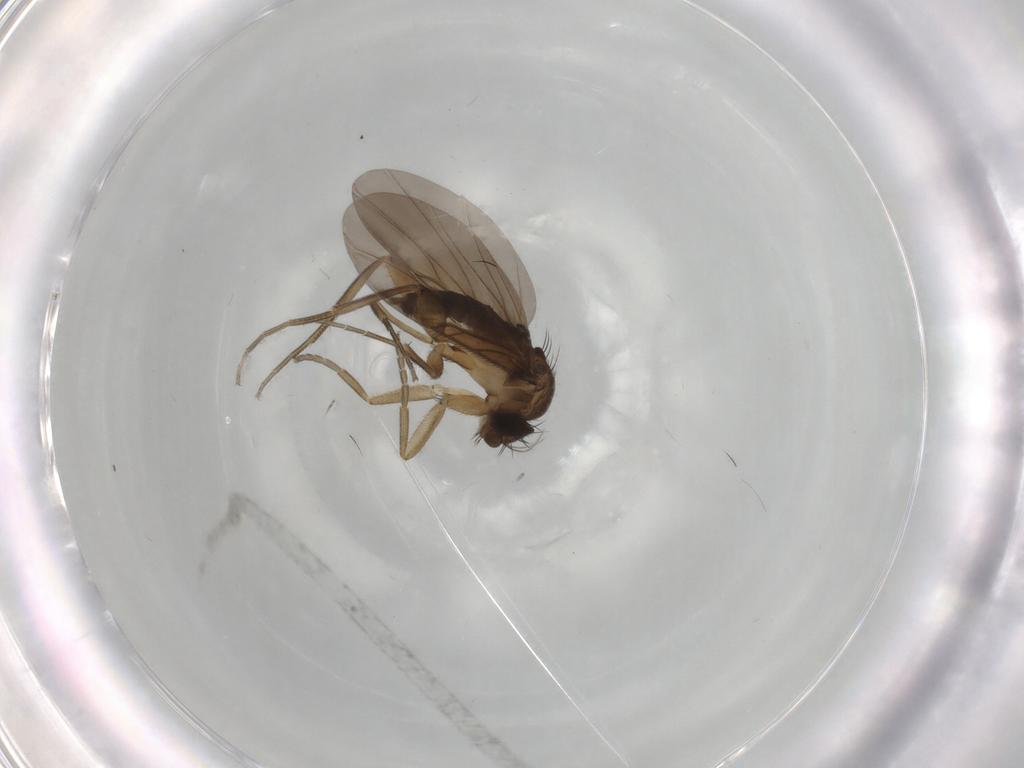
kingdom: Animalia
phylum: Arthropoda
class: Insecta
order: Diptera
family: Phoridae
